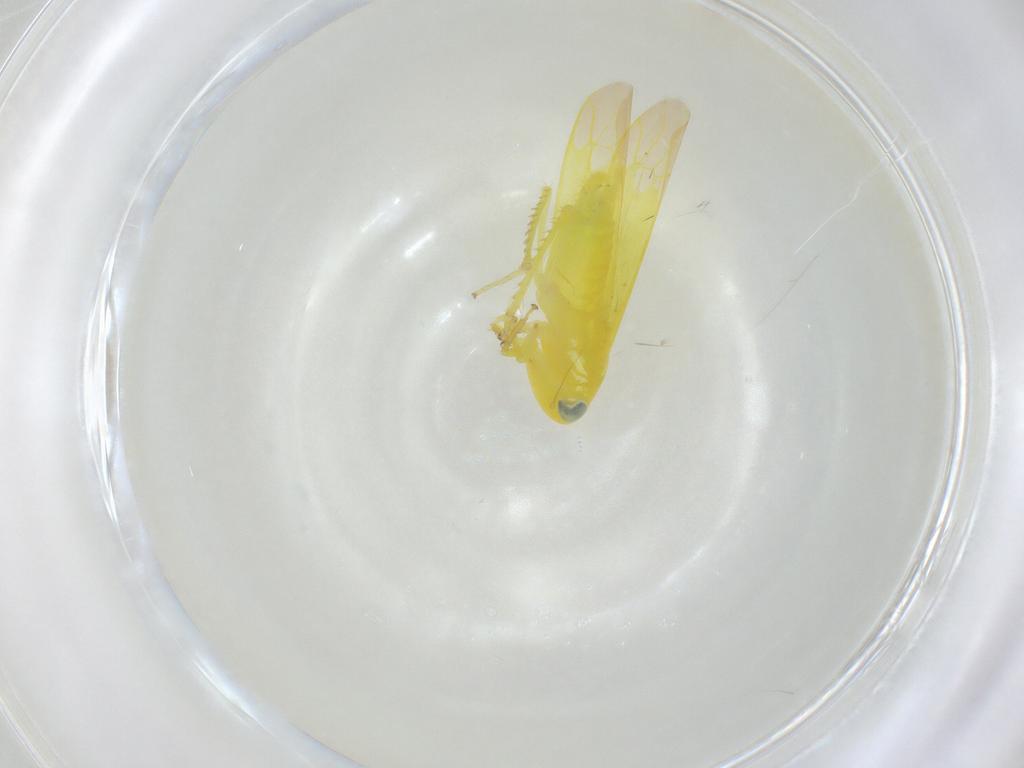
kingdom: Animalia
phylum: Arthropoda
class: Insecta
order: Hemiptera
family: Cicadellidae
